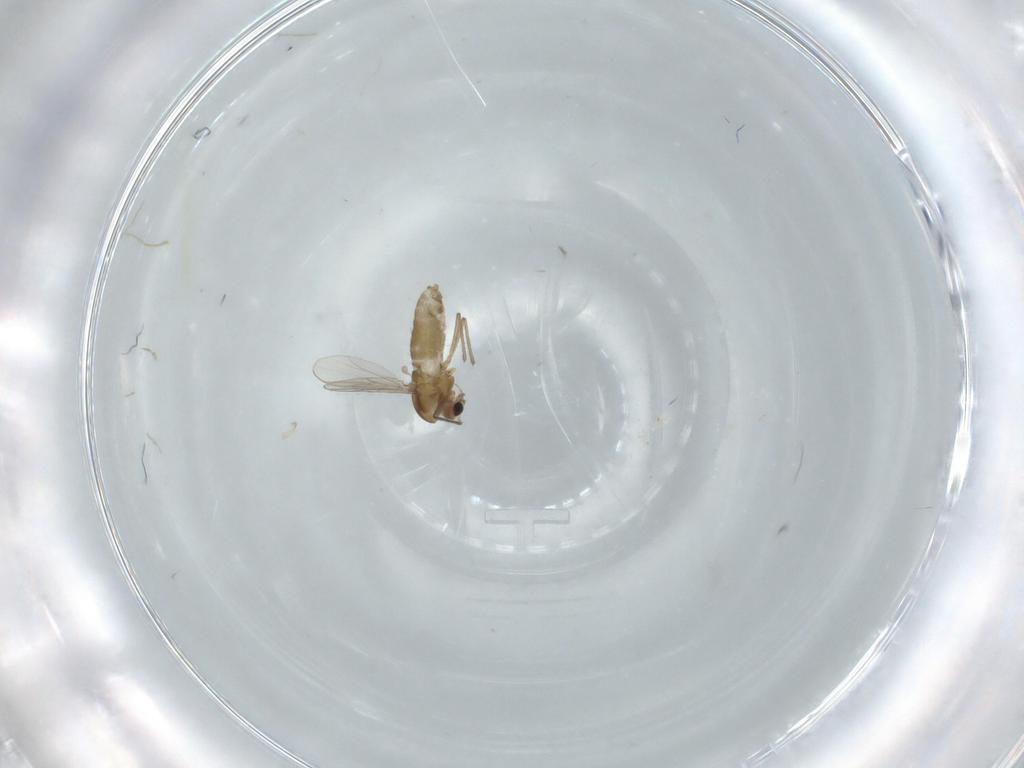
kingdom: Animalia
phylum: Arthropoda
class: Insecta
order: Diptera
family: Chironomidae
